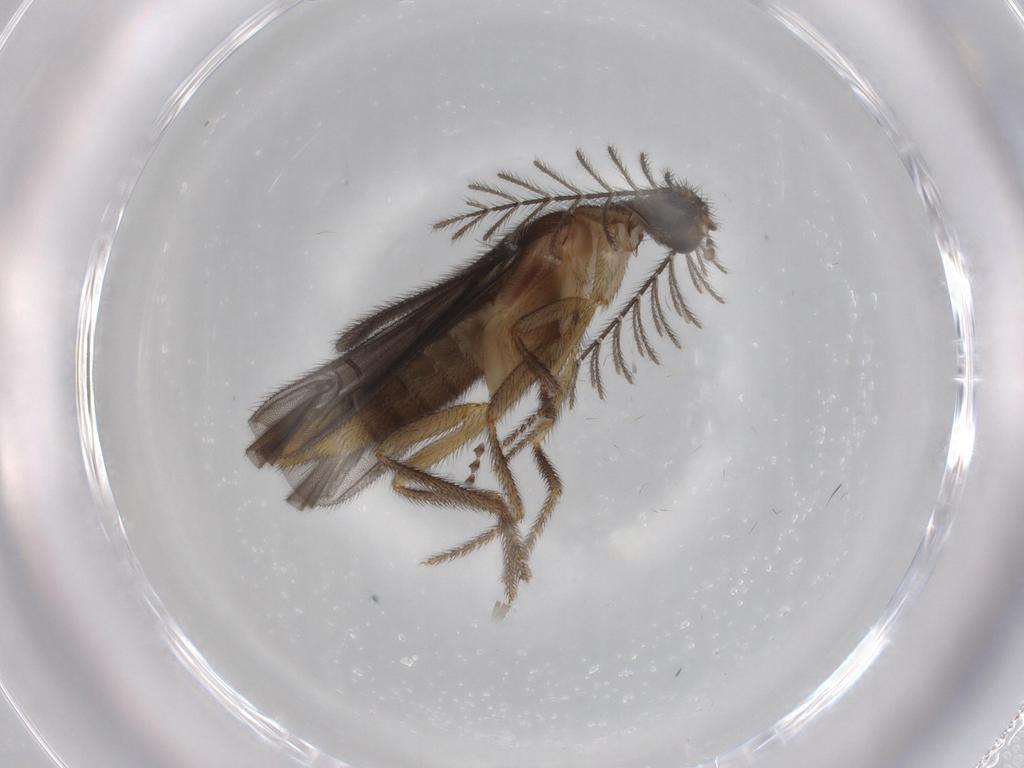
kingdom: Animalia
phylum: Arthropoda
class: Insecta
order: Coleoptera
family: Phengodidae
